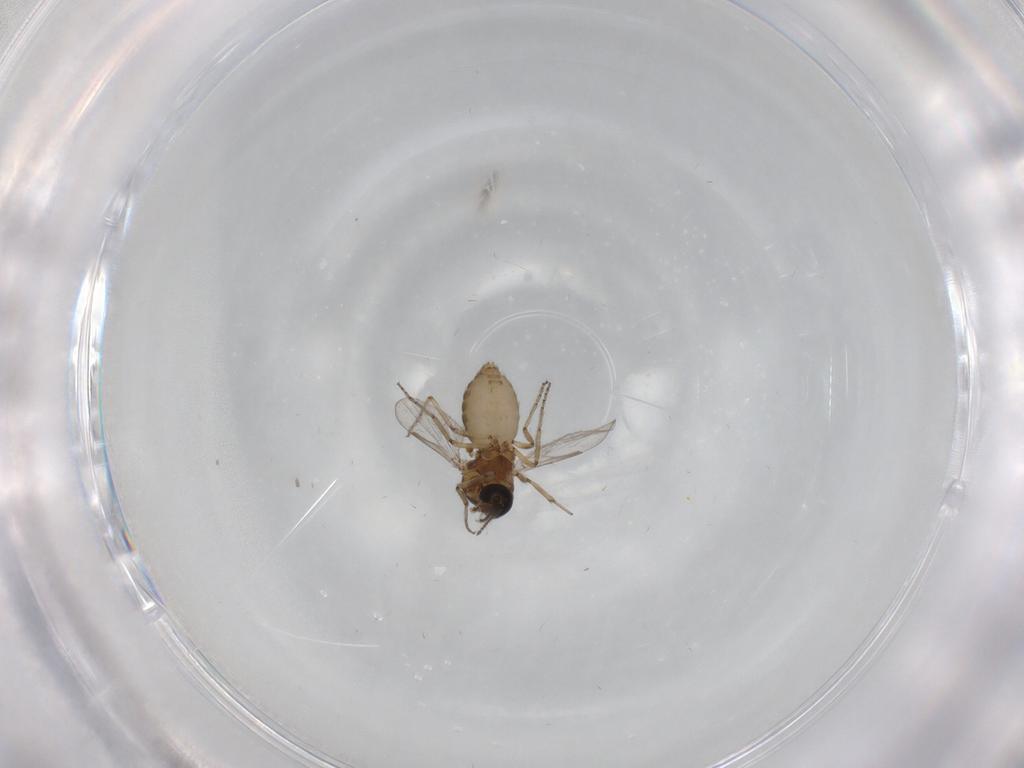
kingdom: Animalia
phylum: Arthropoda
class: Insecta
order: Diptera
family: Ceratopogonidae
